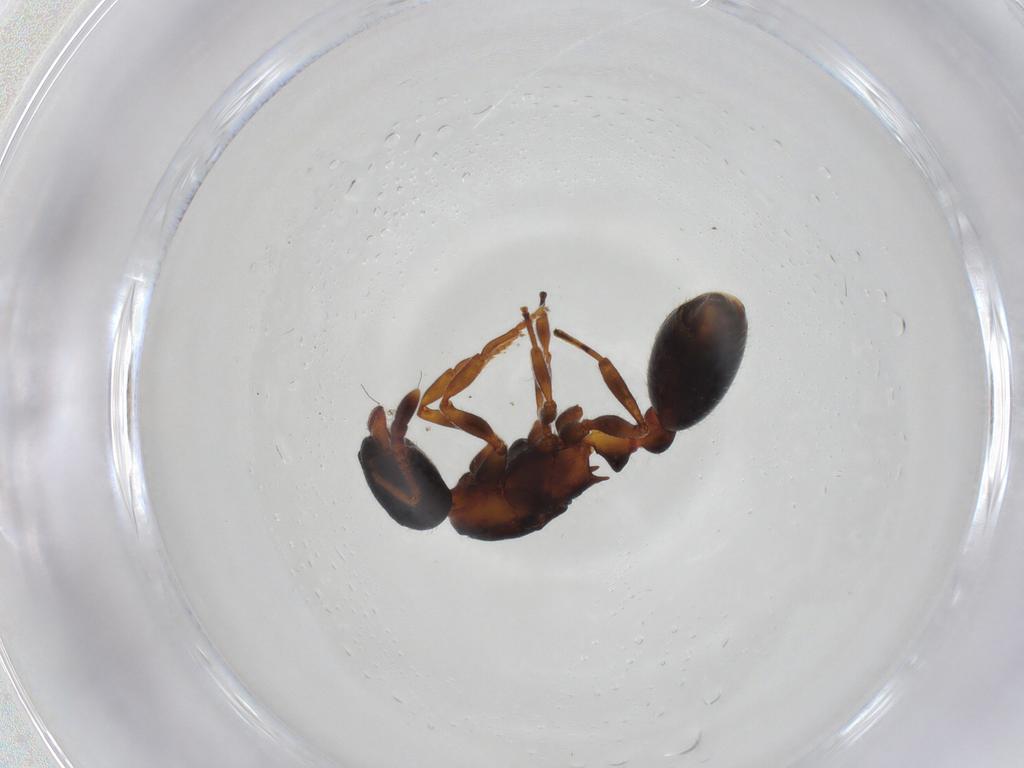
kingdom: Animalia
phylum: Arthropoda
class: Insecta
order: Hymenoptera
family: Formicidae
